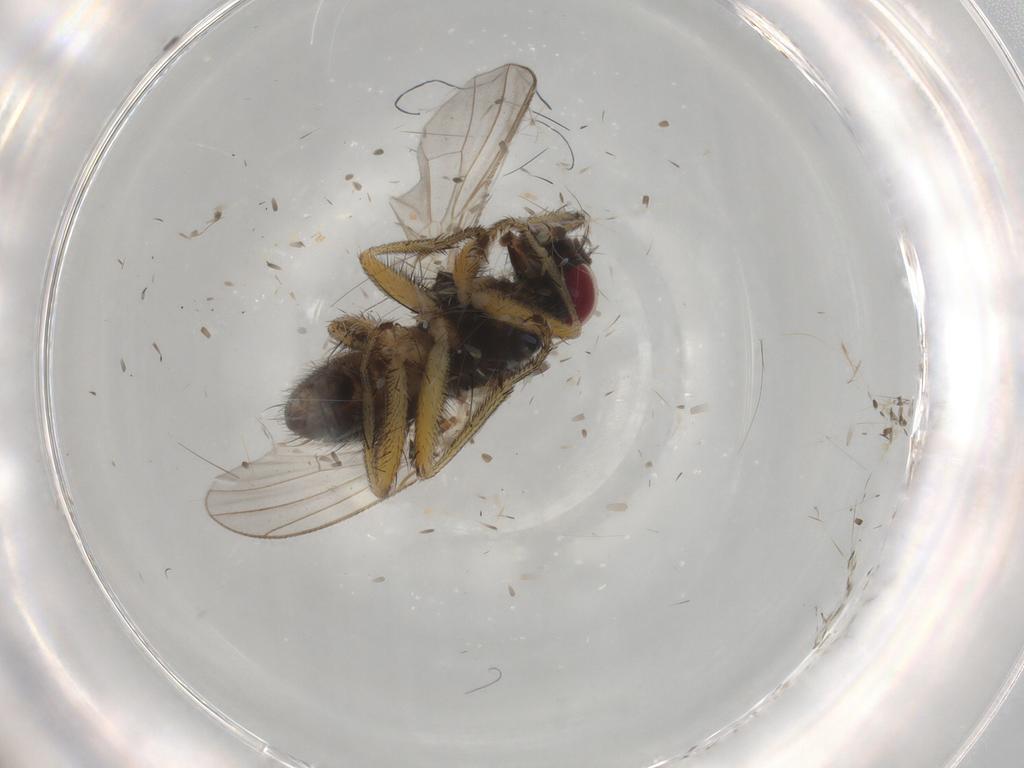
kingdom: Animalia
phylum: Arthropoda
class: Insecta
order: Diptera
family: Muscidae
